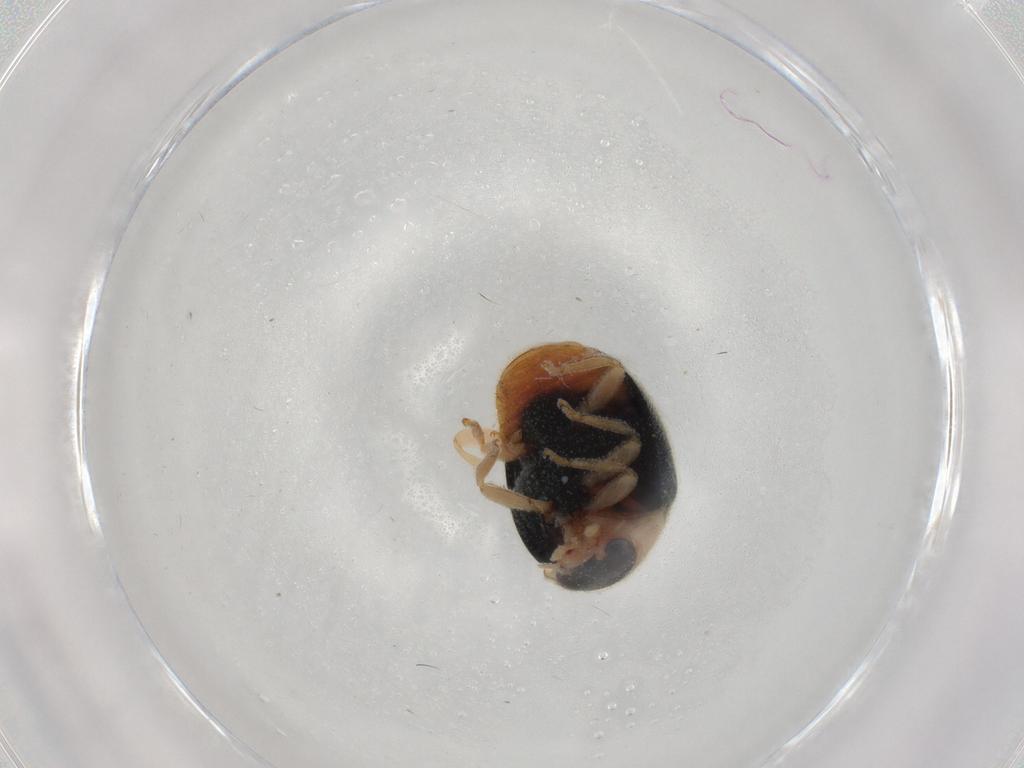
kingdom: Animalia
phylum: Arthropoda
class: Insecta
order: Coleoptera
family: Coccinellidae
